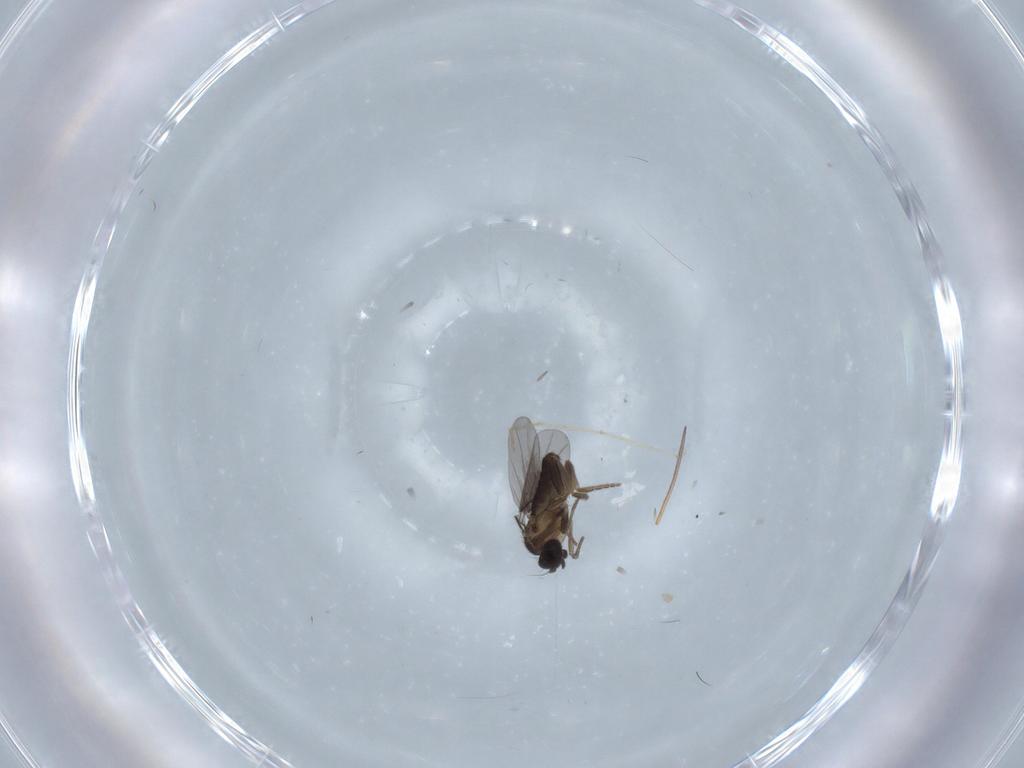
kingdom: Animalia
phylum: Arthropoda
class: Insecta
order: Diptera
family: Chironomidae
